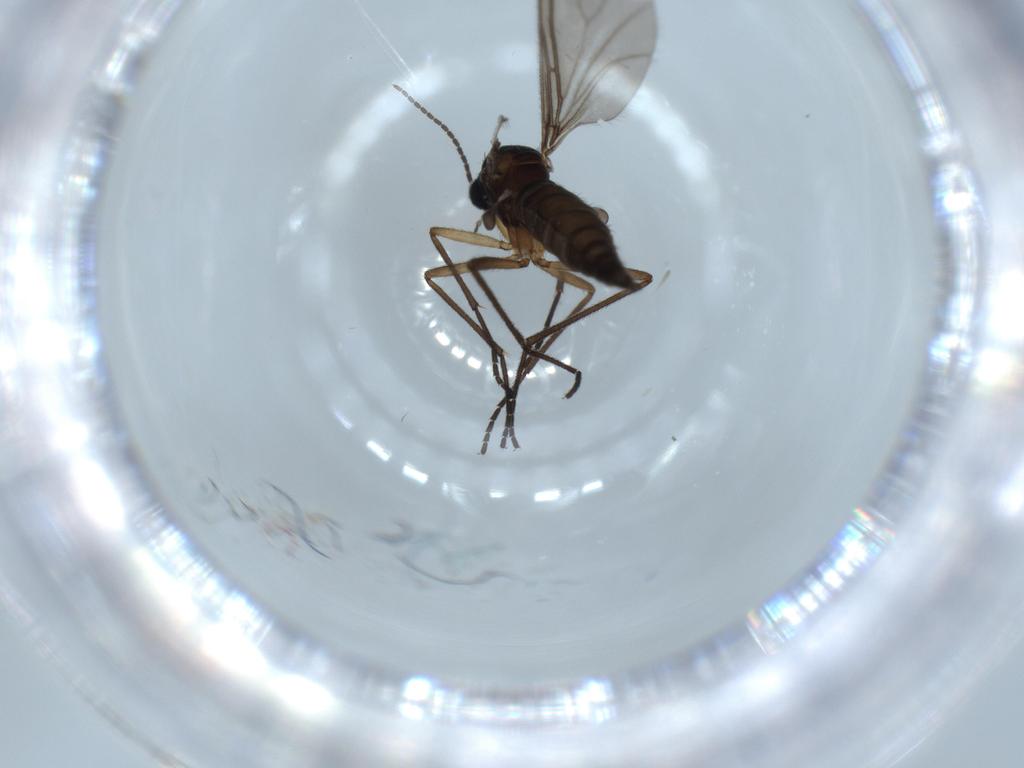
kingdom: Animalia
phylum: Arthropoda
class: Insecta
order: Diptera
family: Sciaridae
